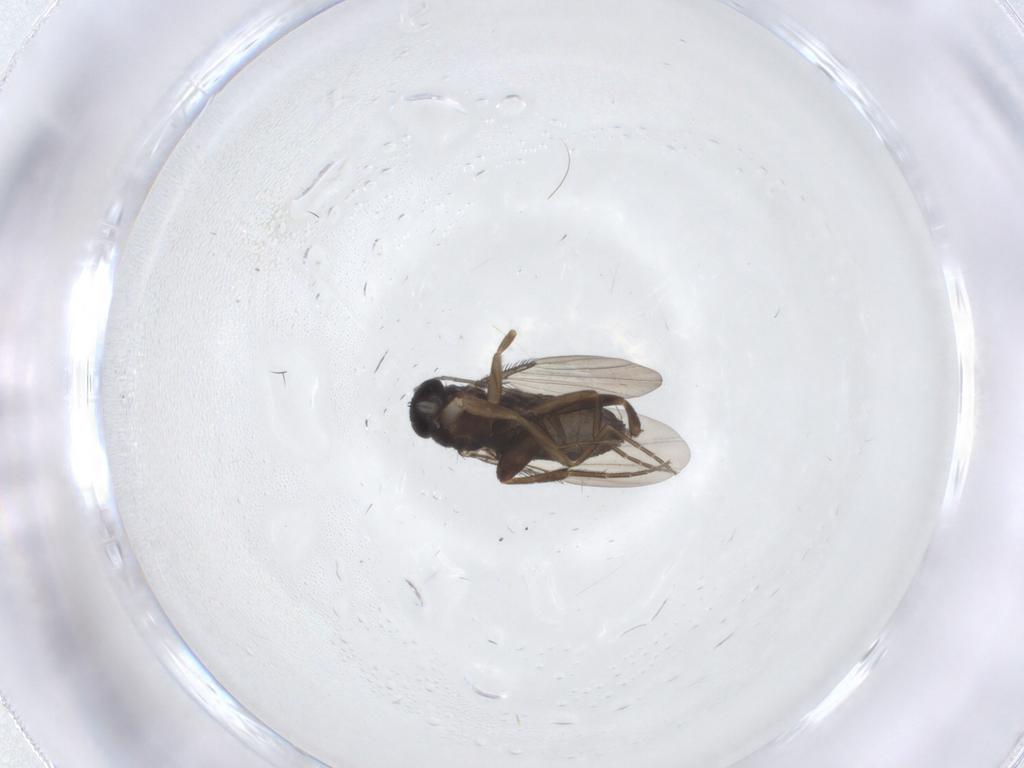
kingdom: Animalia
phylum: Arthropoda
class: Insecta
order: Diptera
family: Phoridae
